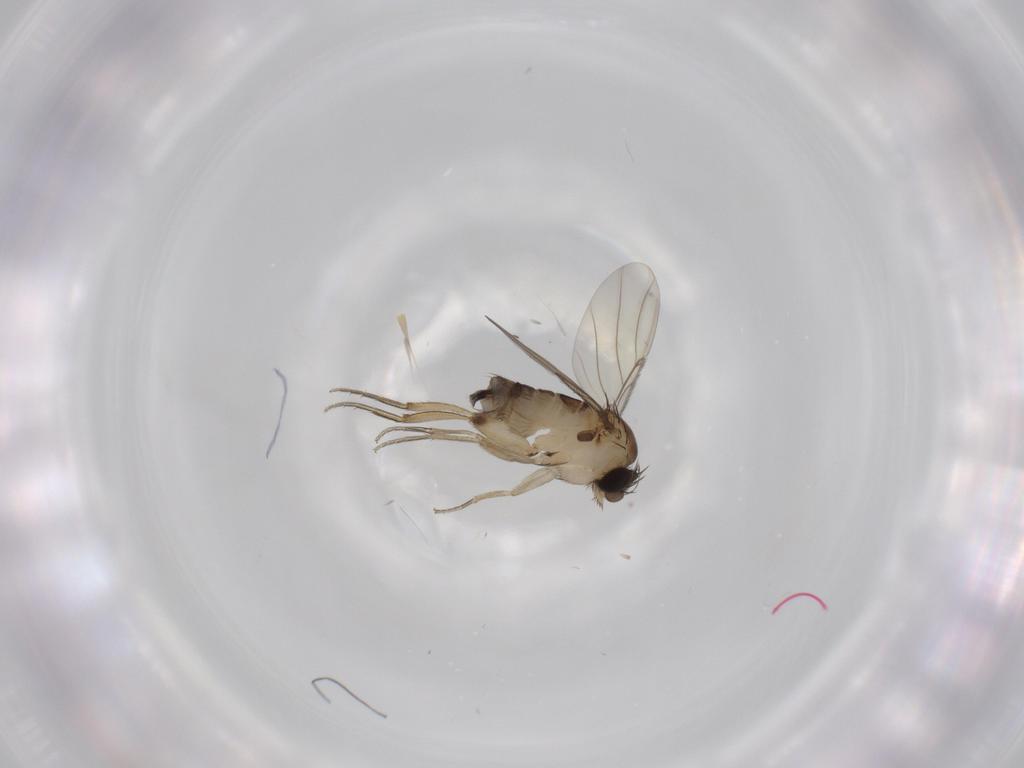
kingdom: Animalia
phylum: Arthropoda
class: Insecta
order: Diptera
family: Phoridae
